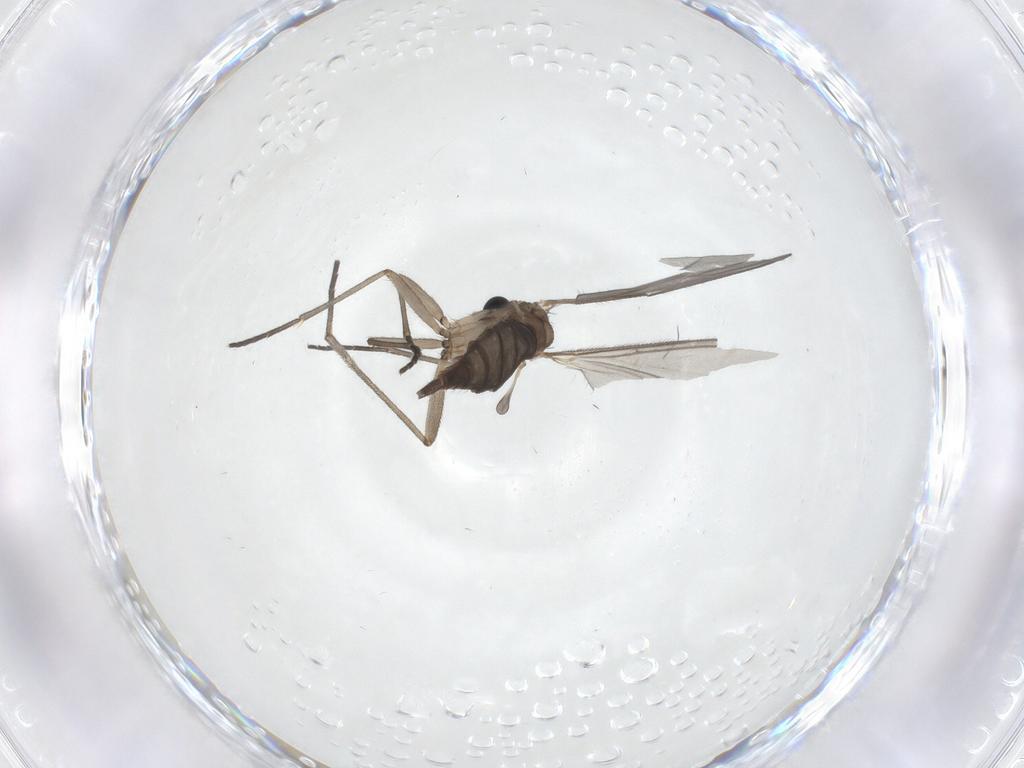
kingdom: Animalia
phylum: Arthropoda
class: Insecta
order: Diptera
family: Sciaridae
